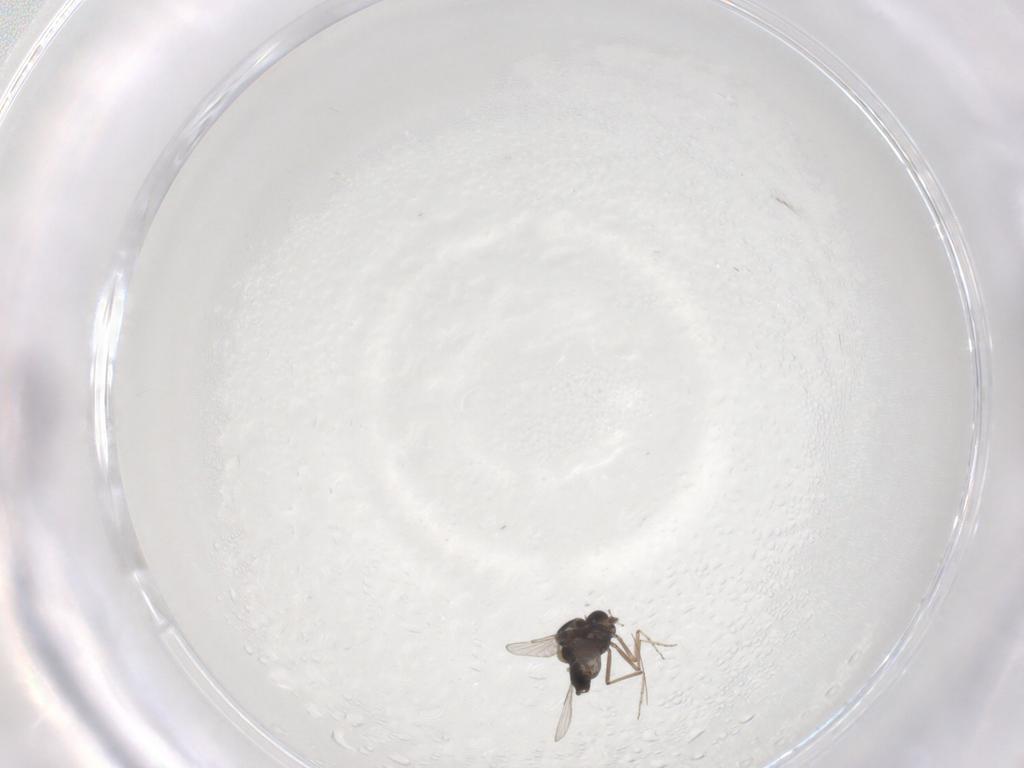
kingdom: Animalia
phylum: Arthropoda
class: Insecta
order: Diptera
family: Ceratopogonidae
